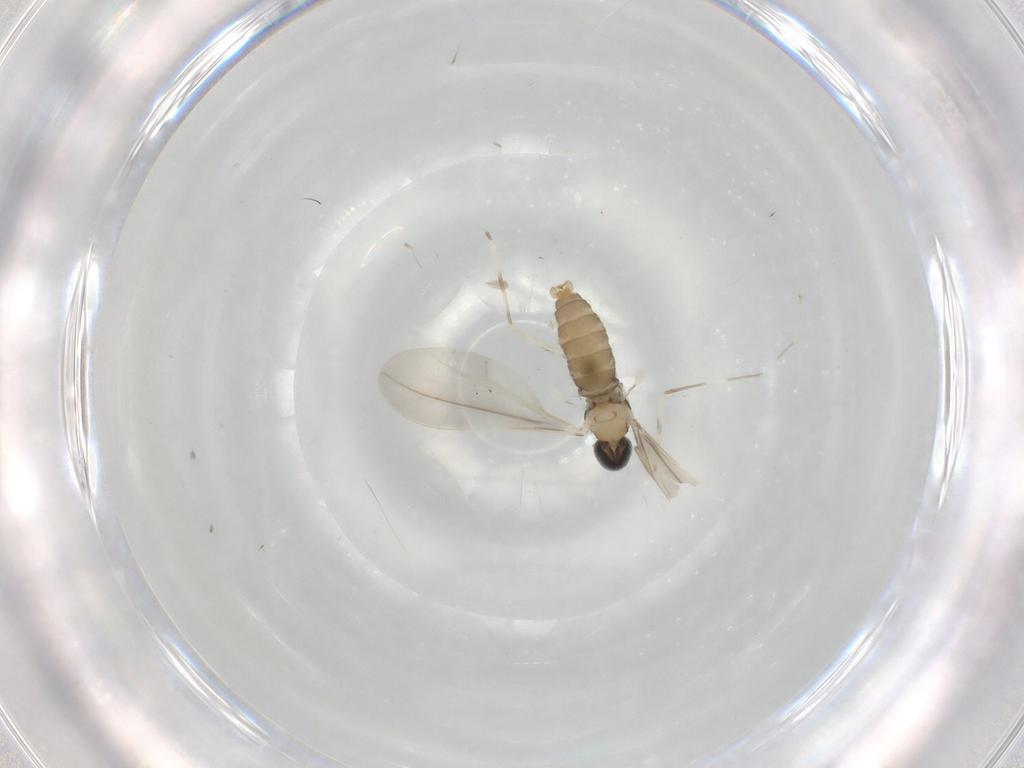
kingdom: Animalia
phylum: Arthropoda
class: Insecta
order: Diptera
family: Cecidomyiidae
